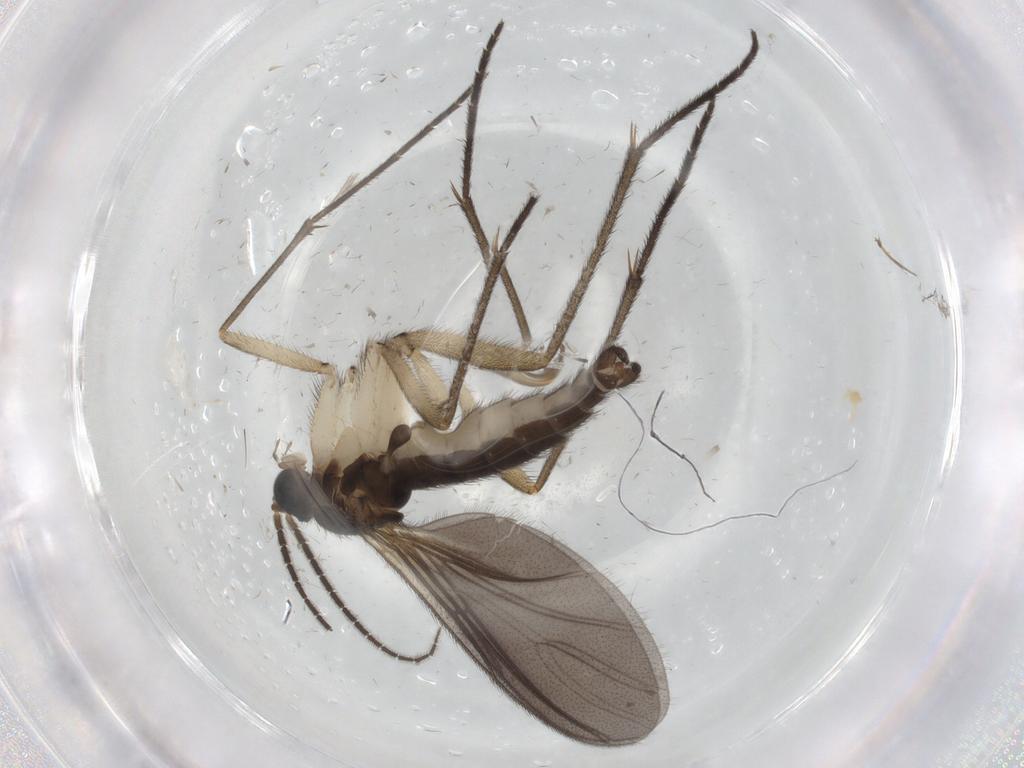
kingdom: Animalia
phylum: Arthropoda
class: Insecta
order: Diptera
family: Sciaridae
